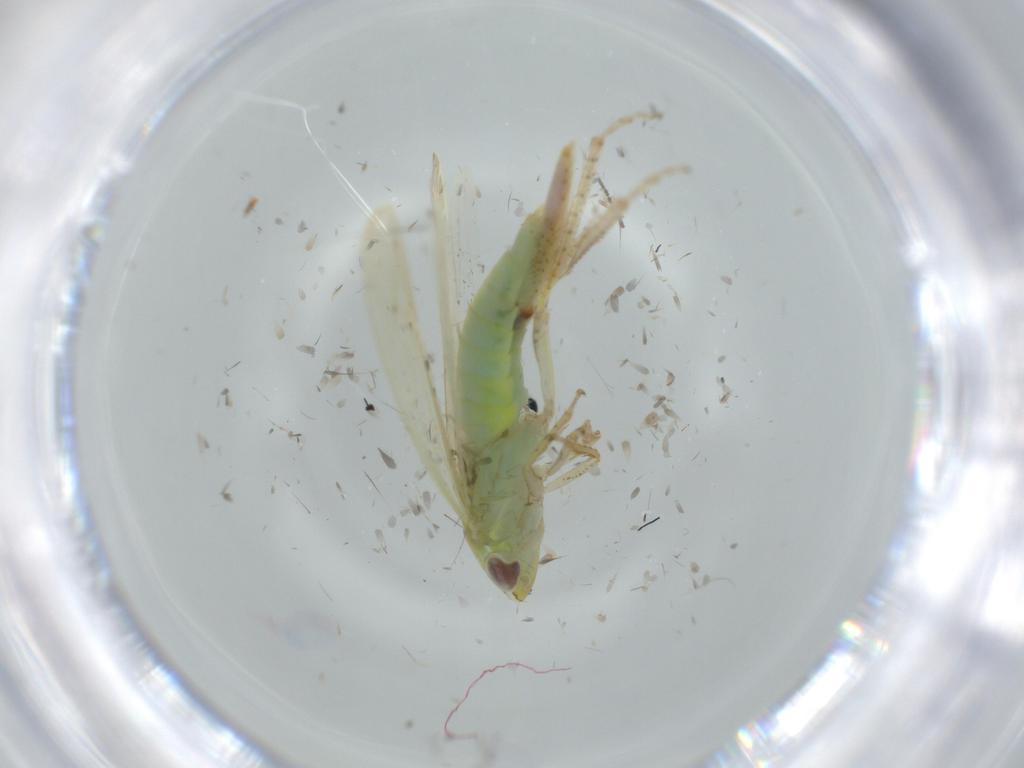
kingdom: Animalia
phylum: Arthropoda
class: Insecta
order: Hemiptera
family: Cicadellidae
